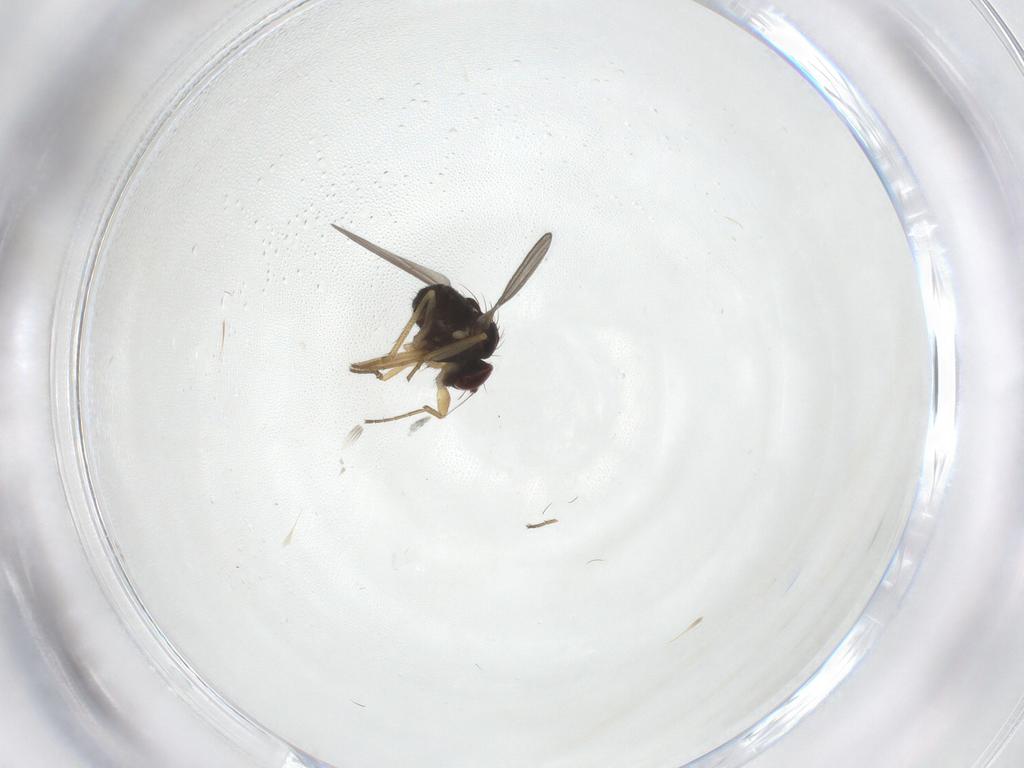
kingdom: Animalia
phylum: Arthropoda
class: Insecta
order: Diptera
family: Dolichopodidae
